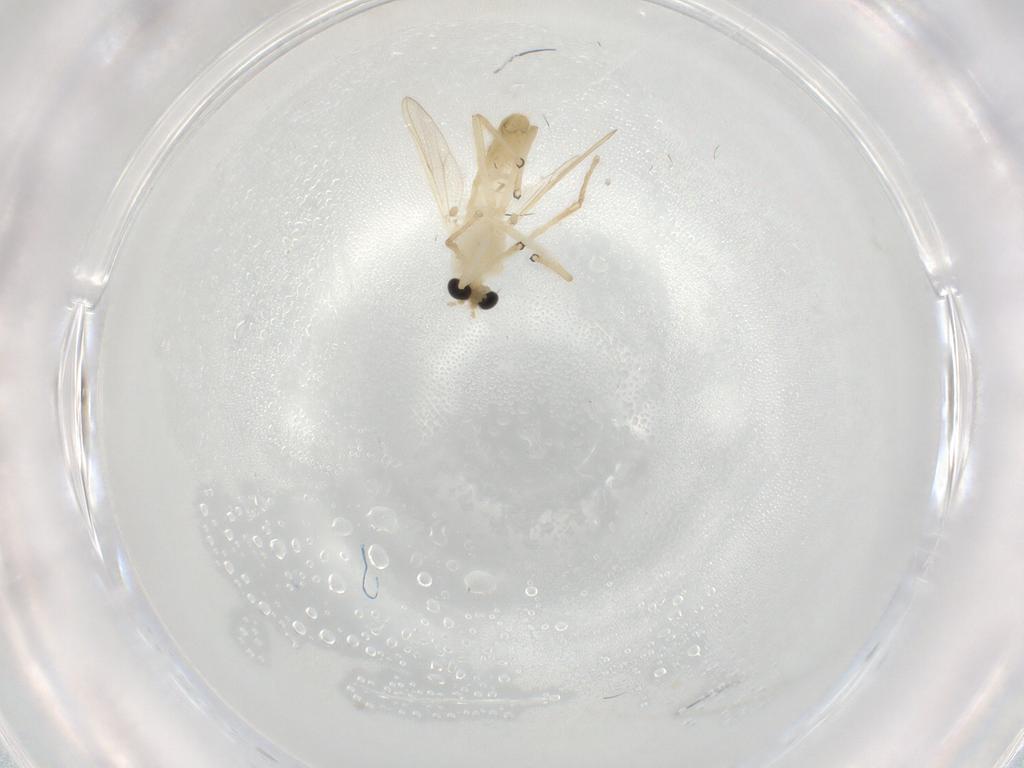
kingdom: Animalia
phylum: Arthropoda
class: Insecta
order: Diptera
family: Chironomidae
